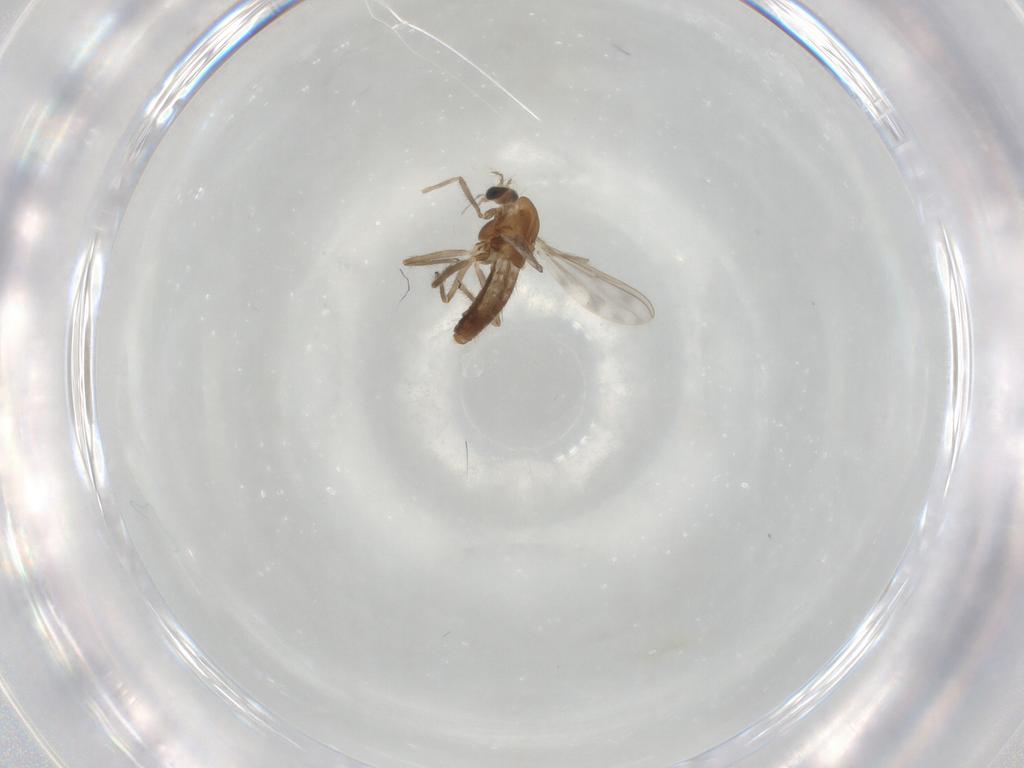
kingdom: Animalia
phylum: Arthropoda
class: Insecta
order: Diptera
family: Chironomidae
